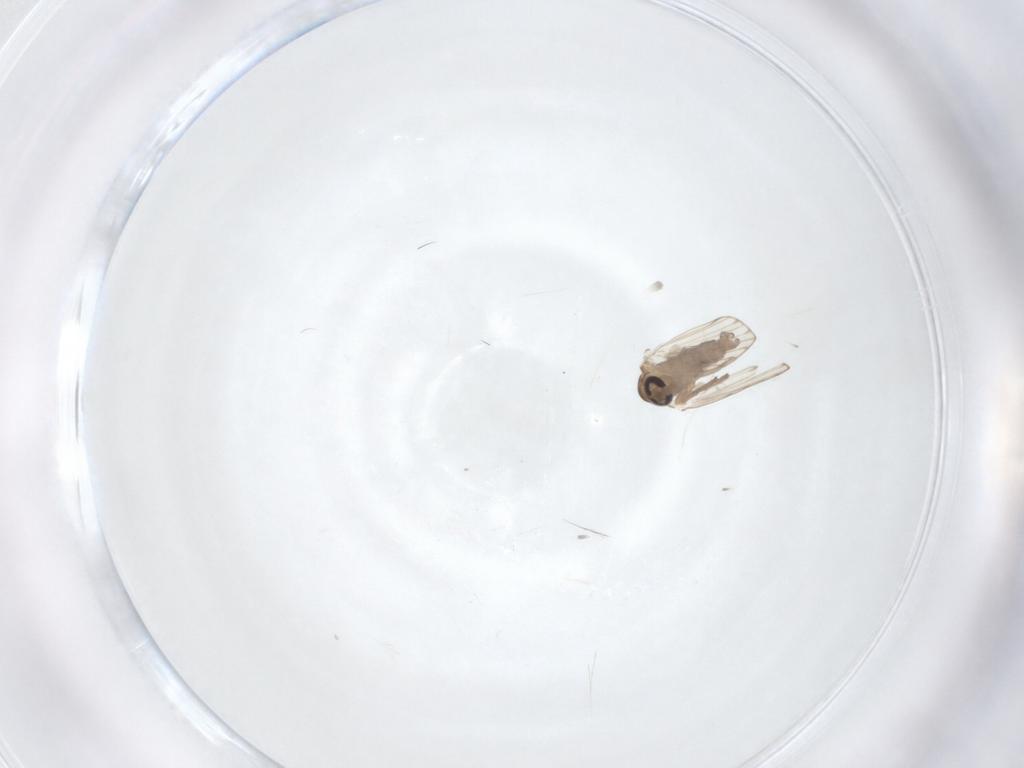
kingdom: Animalia
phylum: Arthropoda
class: Insecta
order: Diptera
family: Psychodidae
